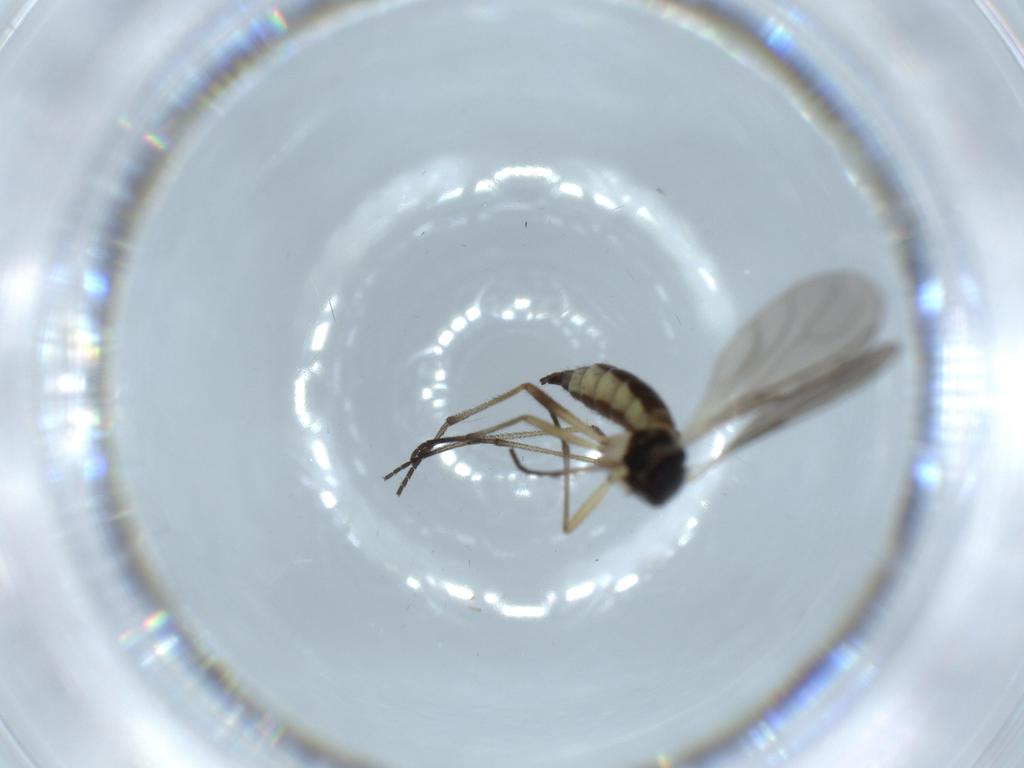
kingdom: Animalia
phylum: Arthropoda
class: Insecta
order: Diptera
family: Sciaridae
